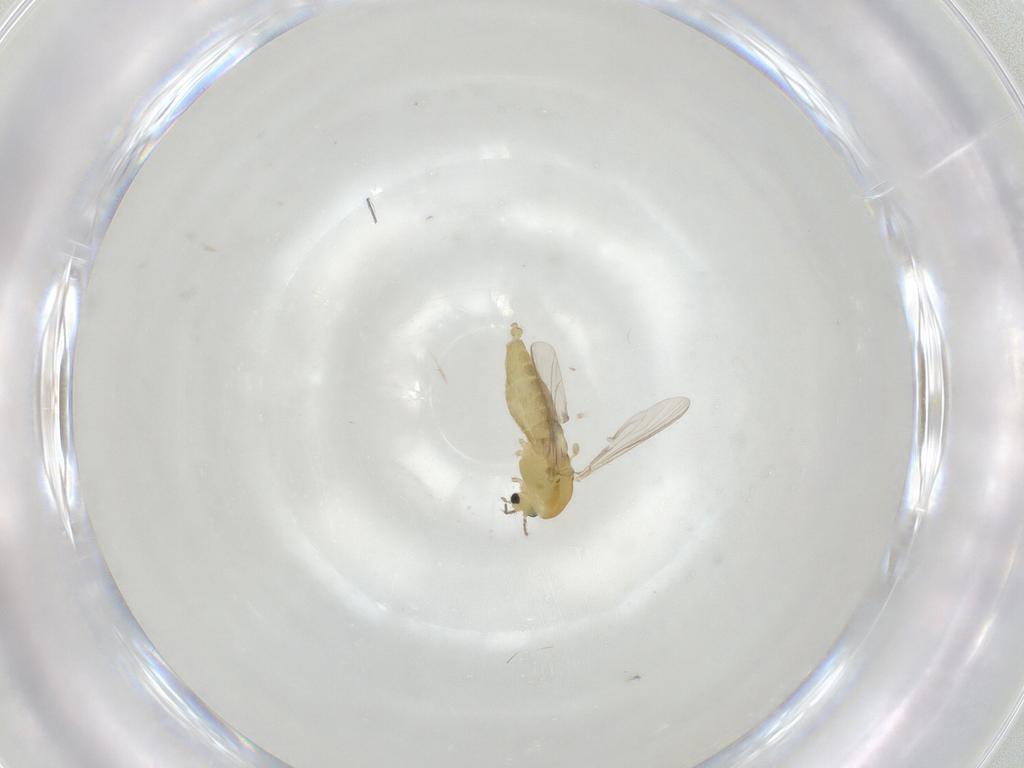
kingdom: Animalia
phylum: Arthropoda
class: Insecta
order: Diptera
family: Chironomidae
